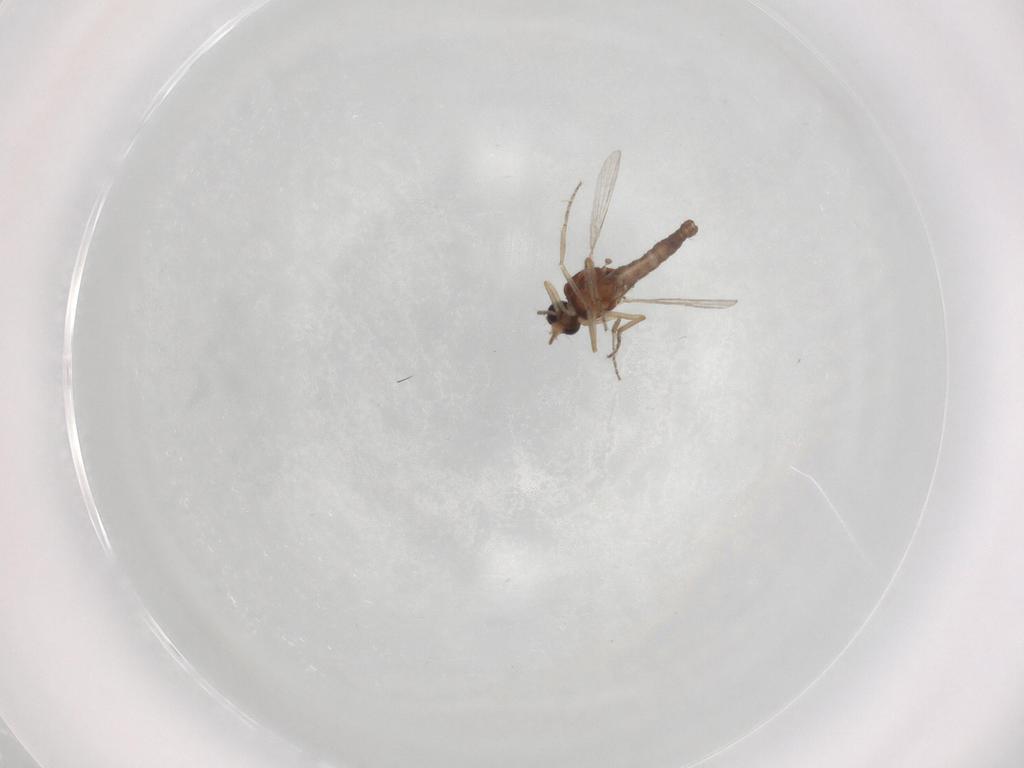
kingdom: Animalia
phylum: Arthropoda
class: Insecta
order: Diptera
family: Ceratopogonidae
